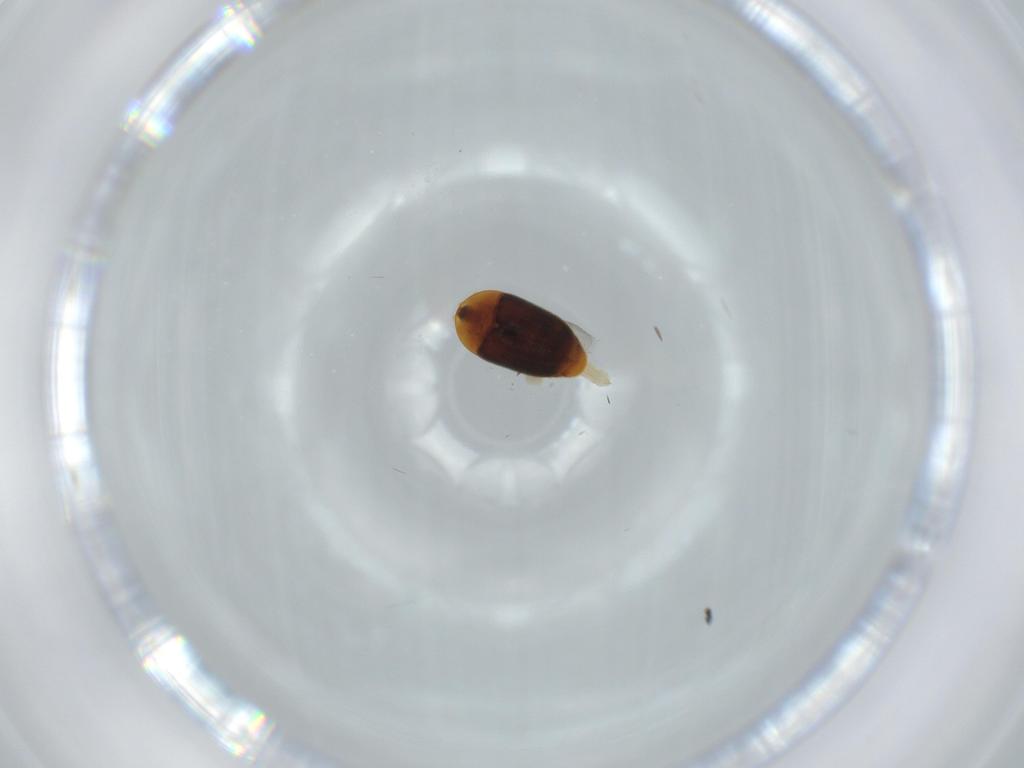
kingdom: Animalia
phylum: Arthropoda
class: Insecta
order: Coleoptera
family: Corylophidae
